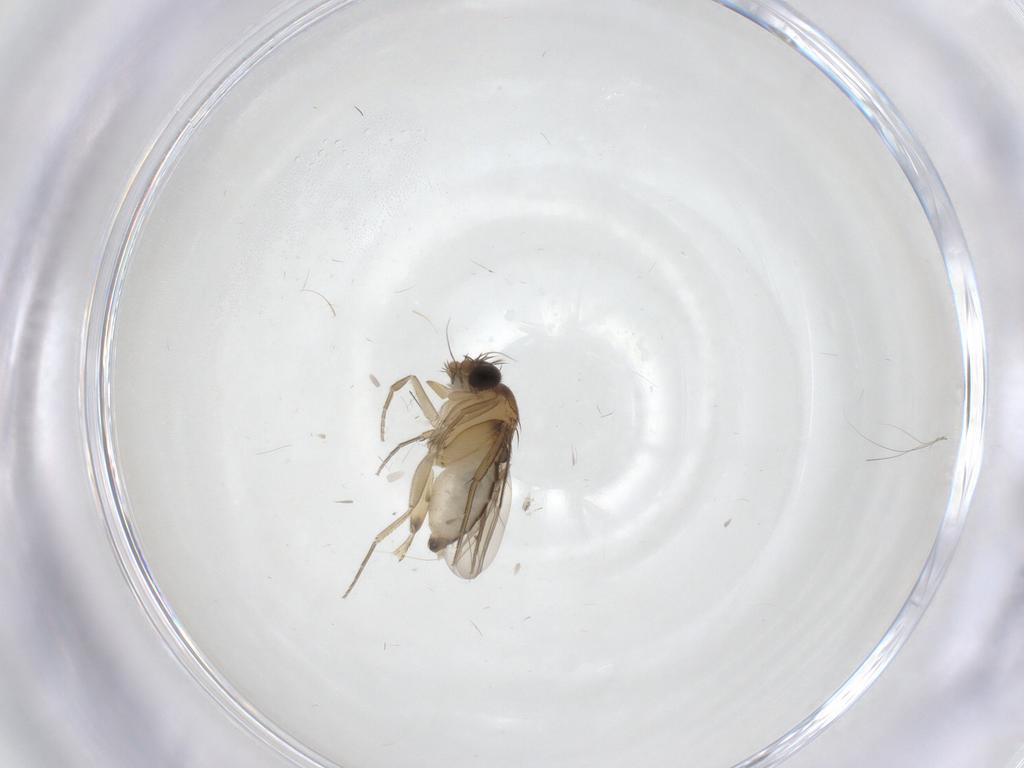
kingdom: Animalia
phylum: Arthropoda
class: Insecta
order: Diptera
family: Phoridae
